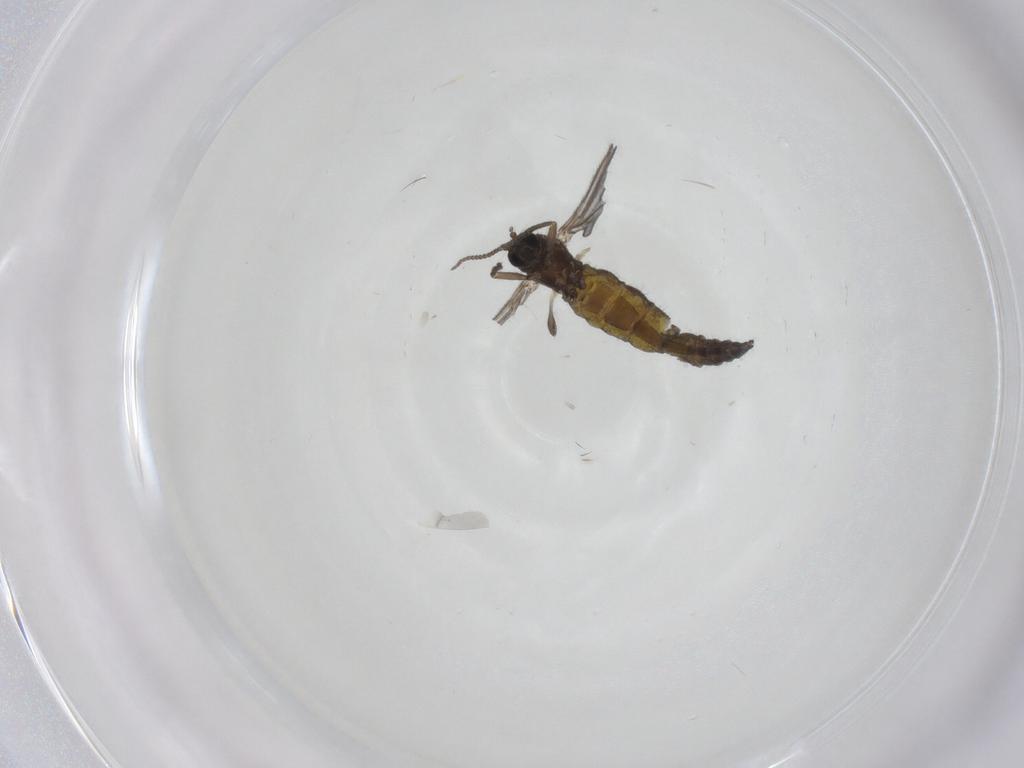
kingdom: Animalia
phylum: Arthropoda
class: Insecta
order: Diptera
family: Sciaridae
